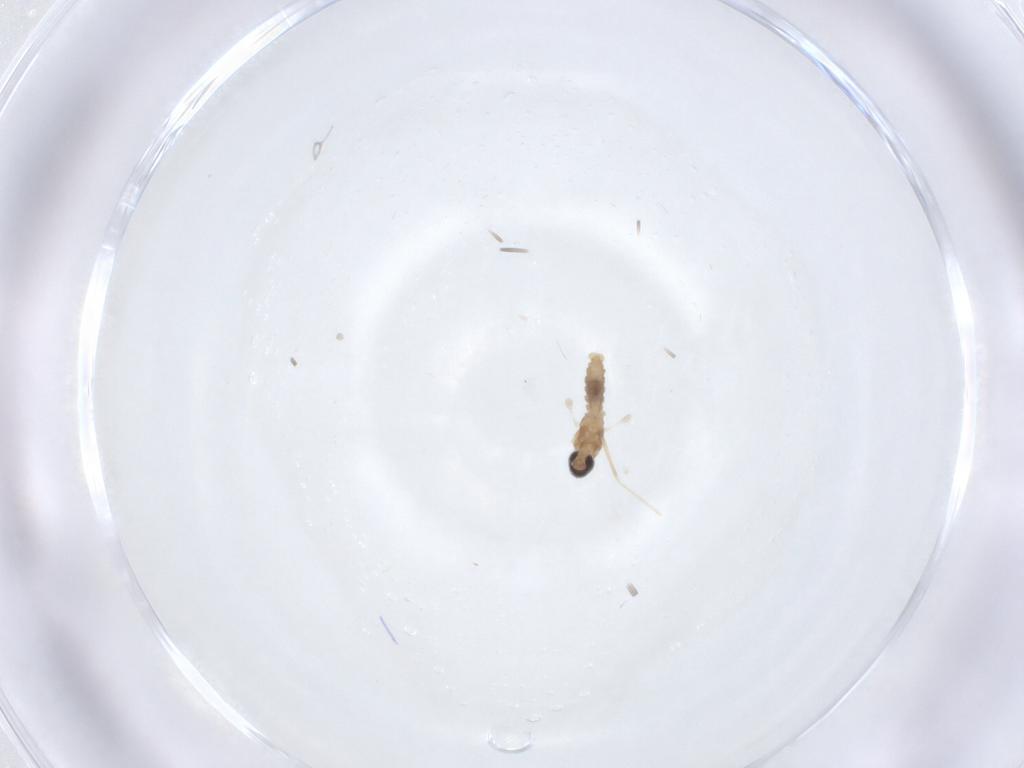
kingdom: Animalia
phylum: Arthropoda
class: Insecta
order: Diptera
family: Cecidomyiidae
